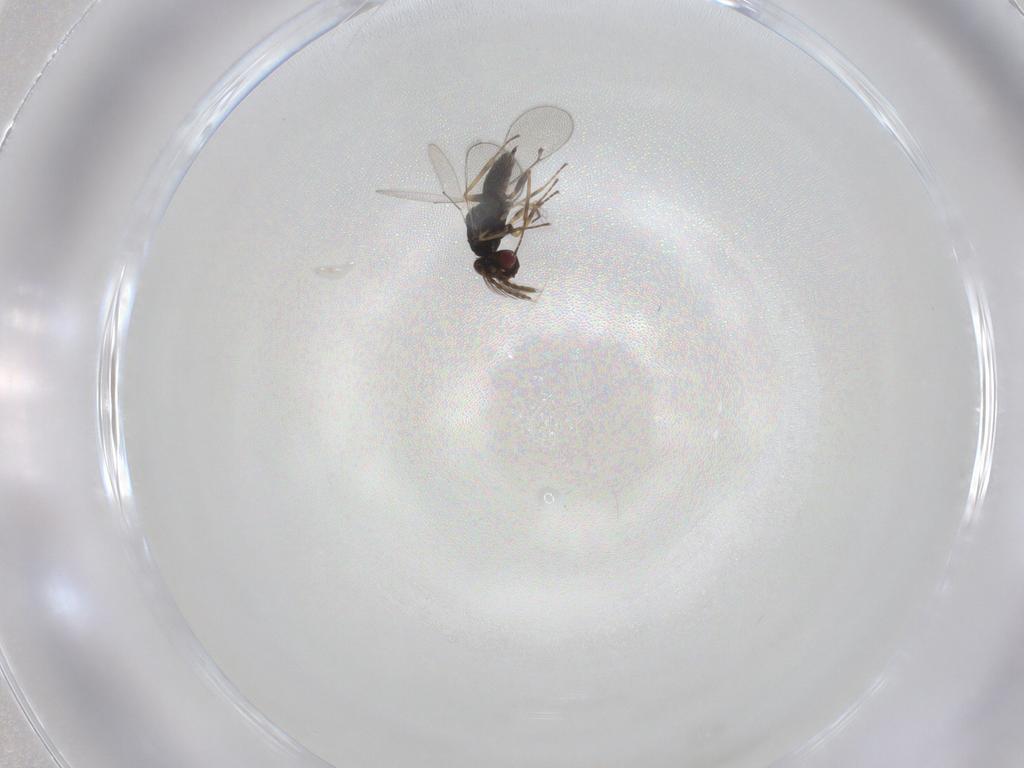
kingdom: Animalia
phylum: Arthropoda
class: Insecta
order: Hymenoptera
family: Eulophidae
